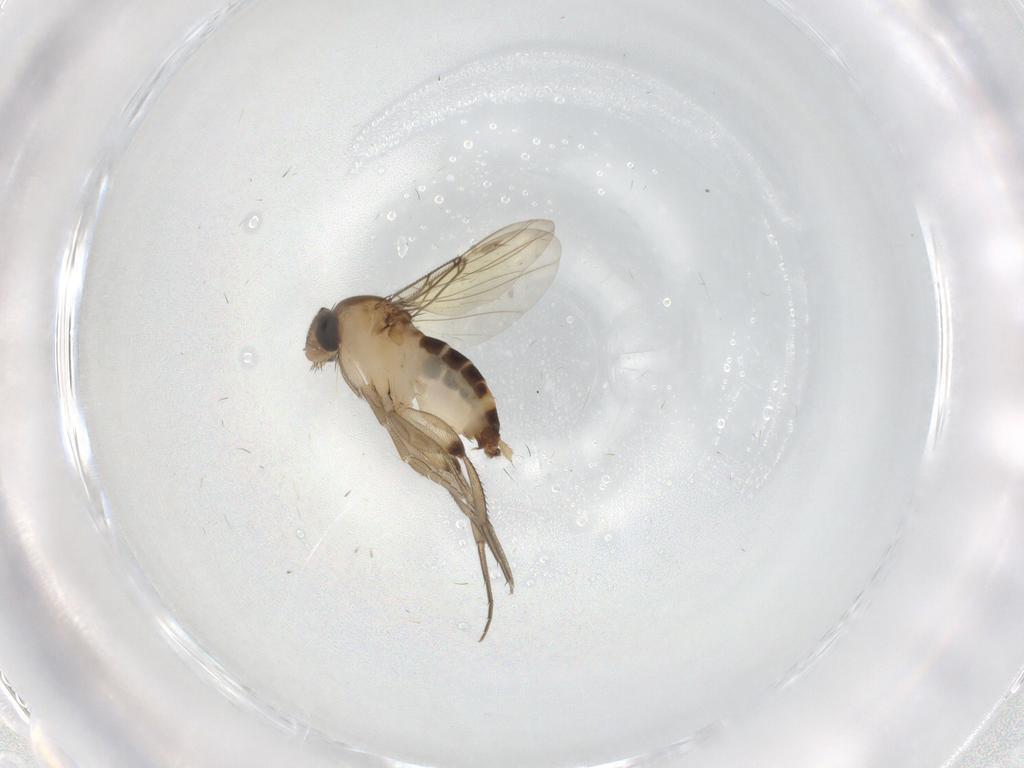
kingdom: Animalia
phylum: Arthropoda
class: Insecta
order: Diptera
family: Phoridae
